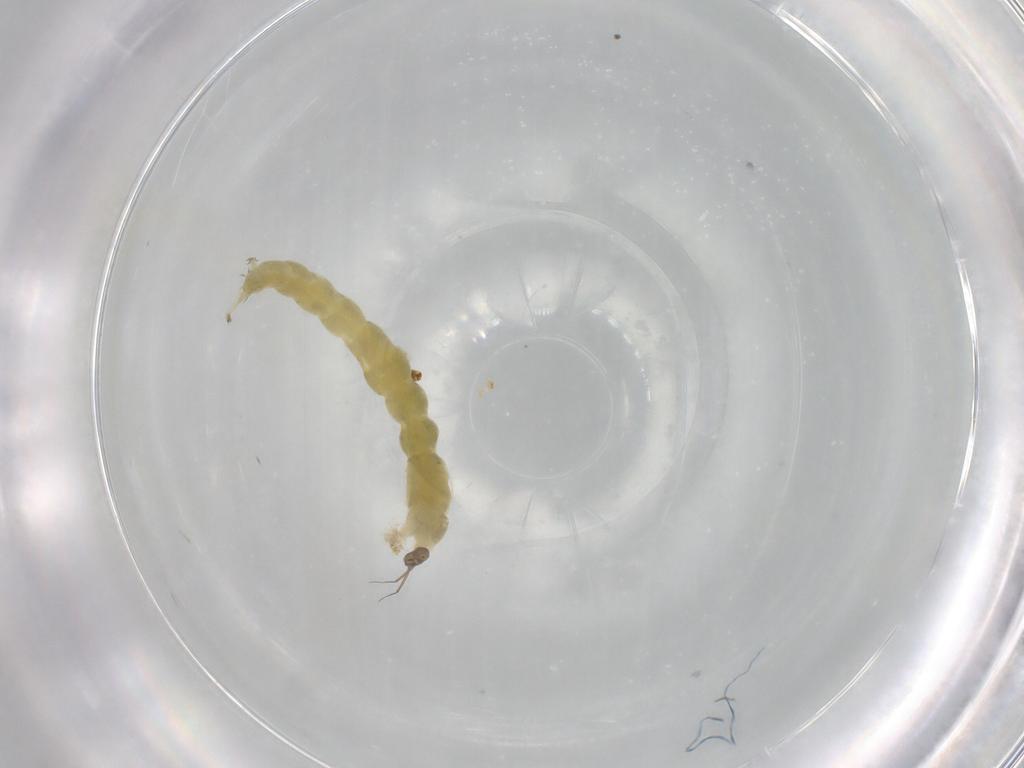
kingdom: Animalia
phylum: Arthropoda
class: Insecta
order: Diptera
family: Chironomidae
